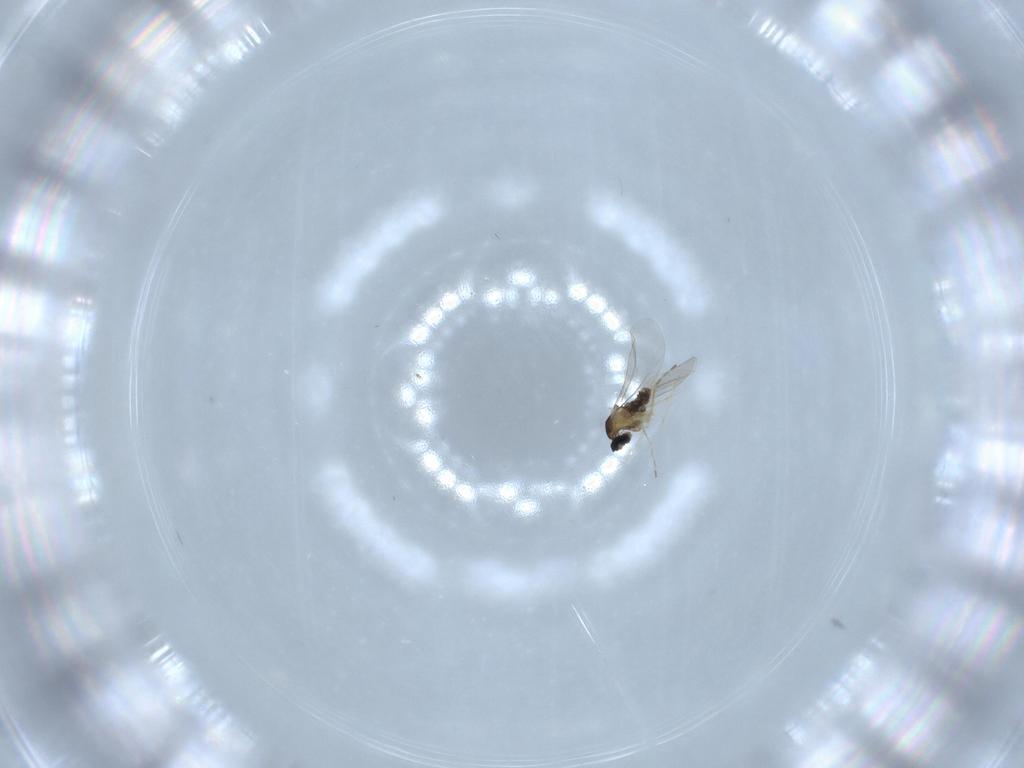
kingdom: Animalia
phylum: Arthropoda
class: Insecta
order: Diptera
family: Cecidomyiidae
